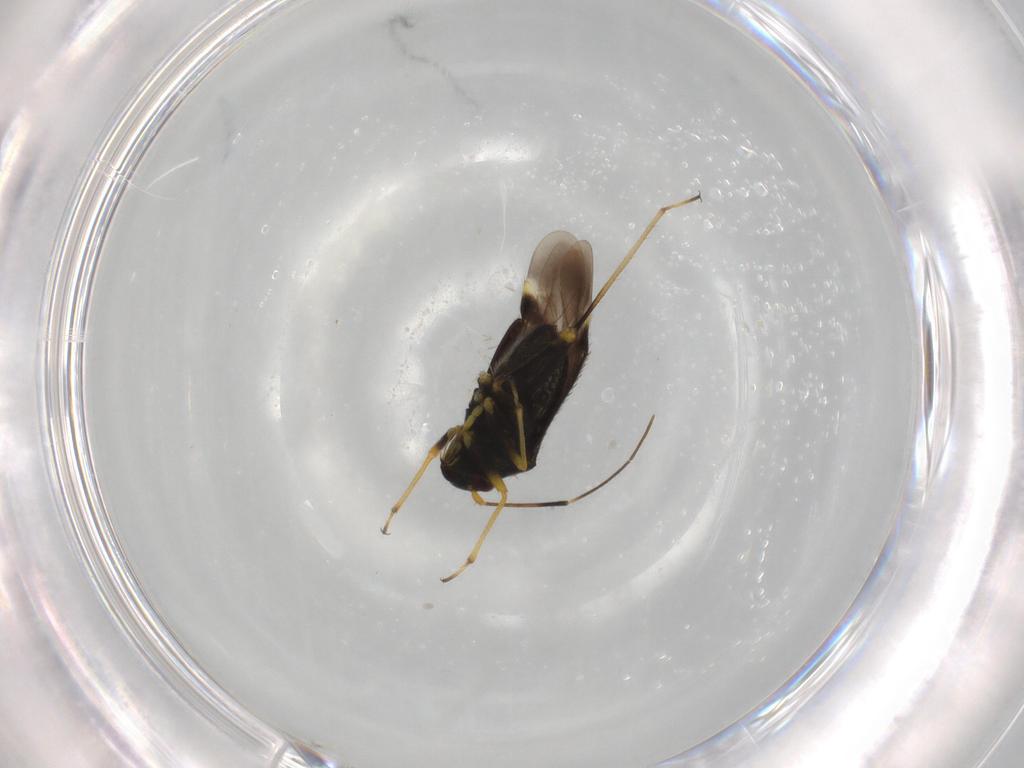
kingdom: Animalia
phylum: Arthropoda
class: Insecta
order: Hemiptera
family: Miridae
